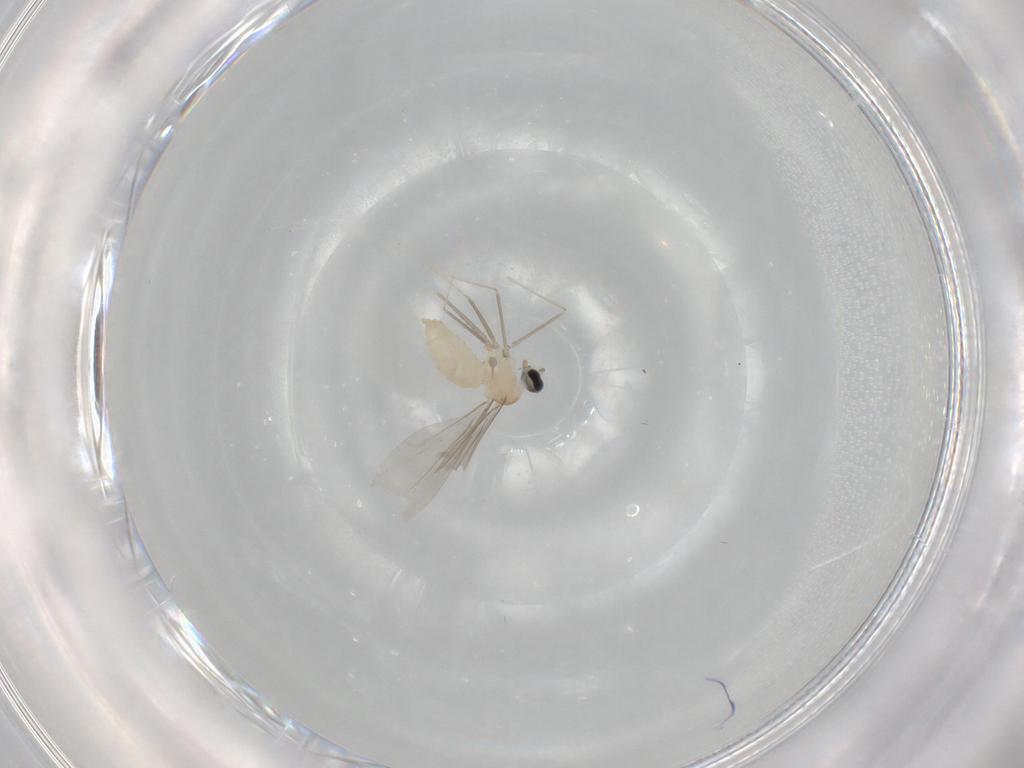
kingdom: Animalia
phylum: Arthropoda
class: Insecta
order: Diptera
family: Cecidomyiidae
